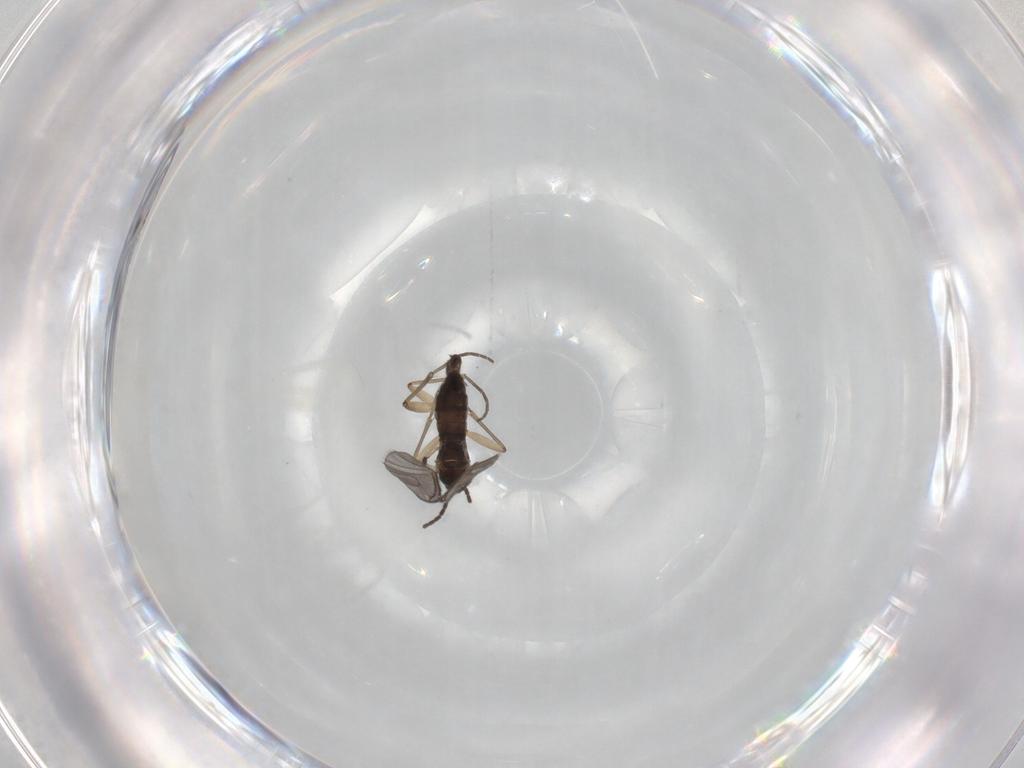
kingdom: Animalia
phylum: Arthropoda
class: Insecta
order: Diptera
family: Sciaridae
